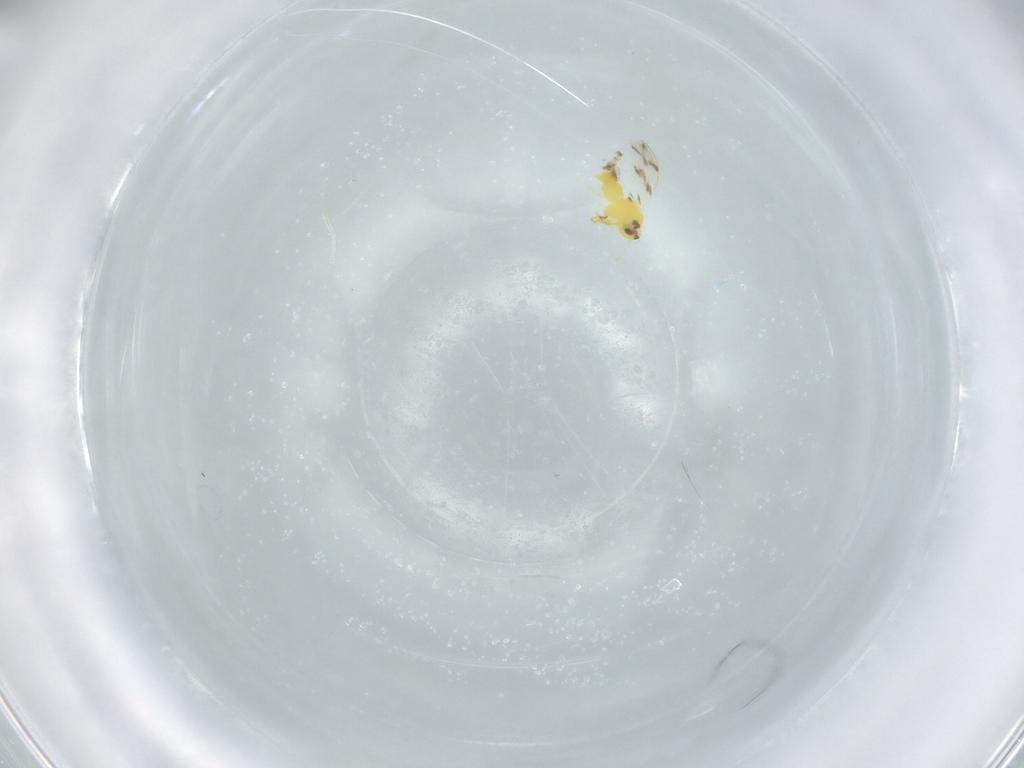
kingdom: Animalia
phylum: Arthropoda
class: Insecta
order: Hemiptera
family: Aleyrodidae
